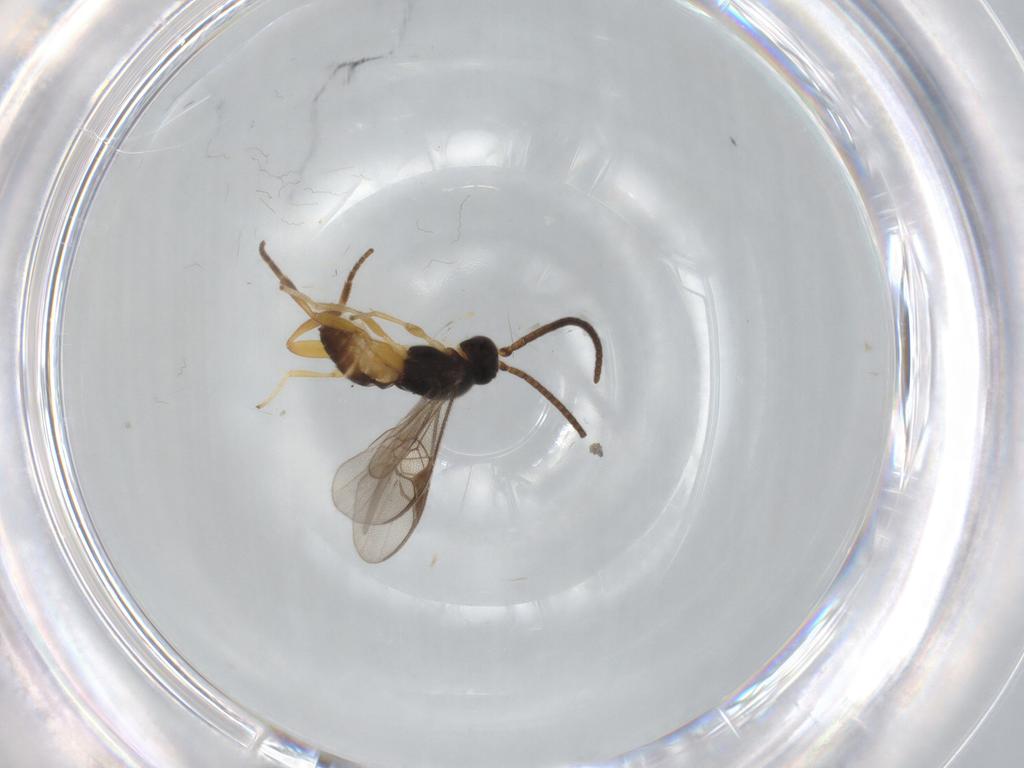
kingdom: Animalia
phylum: Arthropoda
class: Insecta
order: Hymenoptera
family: Braconidae
